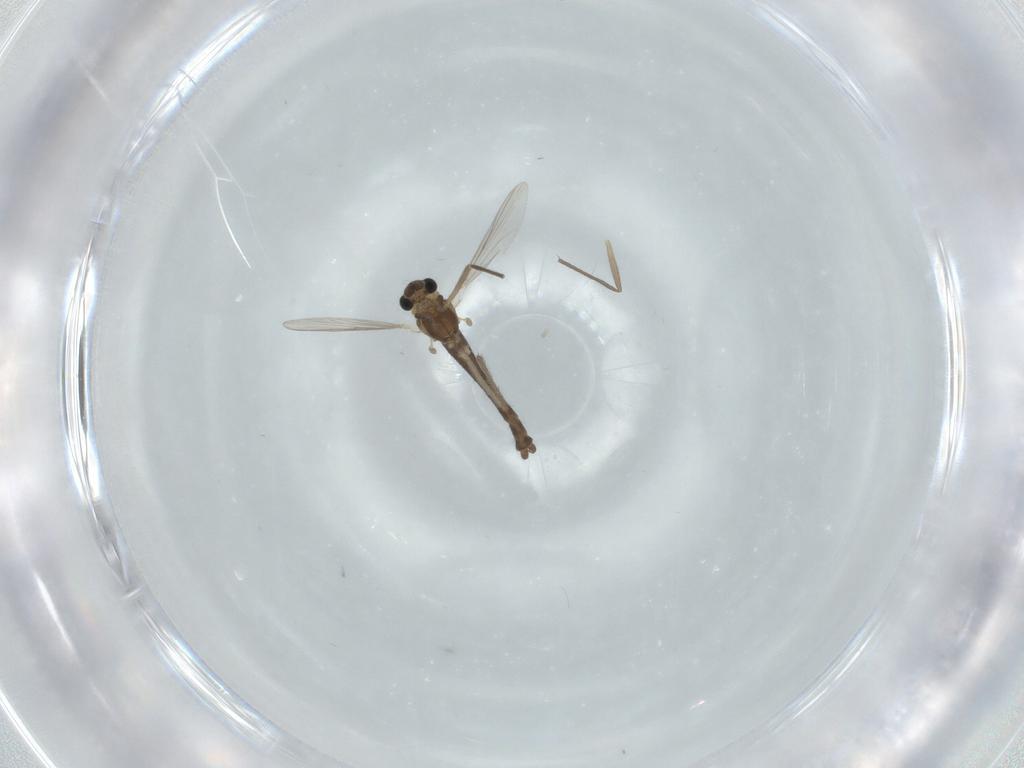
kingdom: Animalia
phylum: Arthropoda
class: Insecta
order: Diptera
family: Chironomidae
